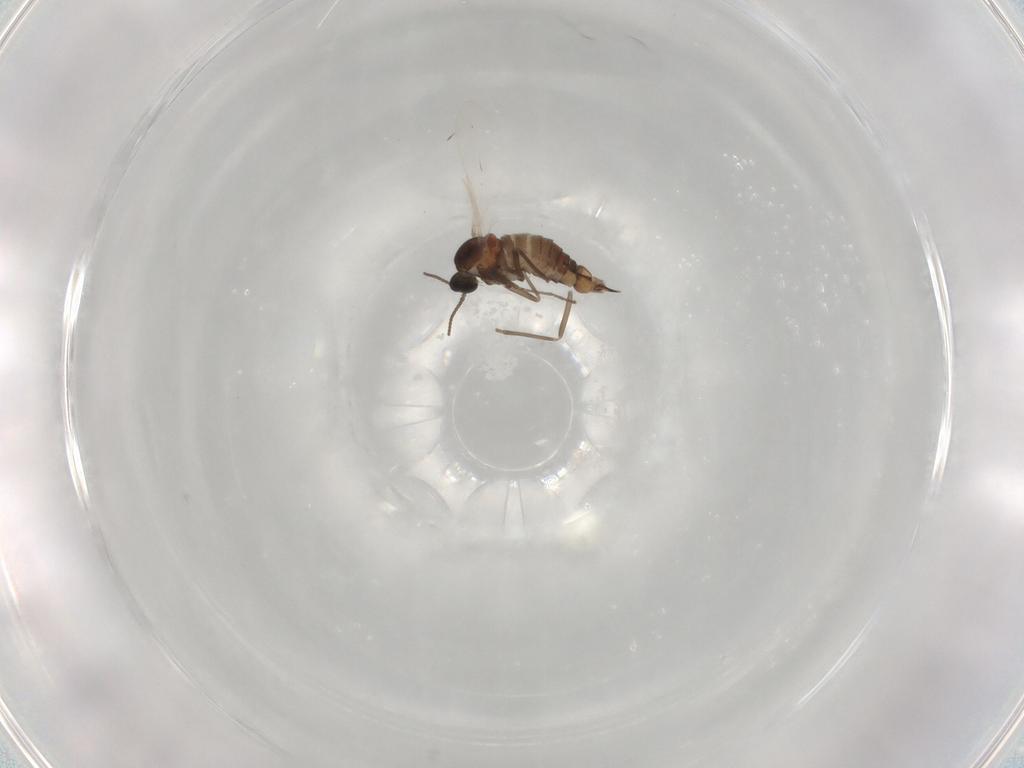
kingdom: Animalia
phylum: Arthropoda
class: Insecta
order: Diptera
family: Cecidomyiidae
